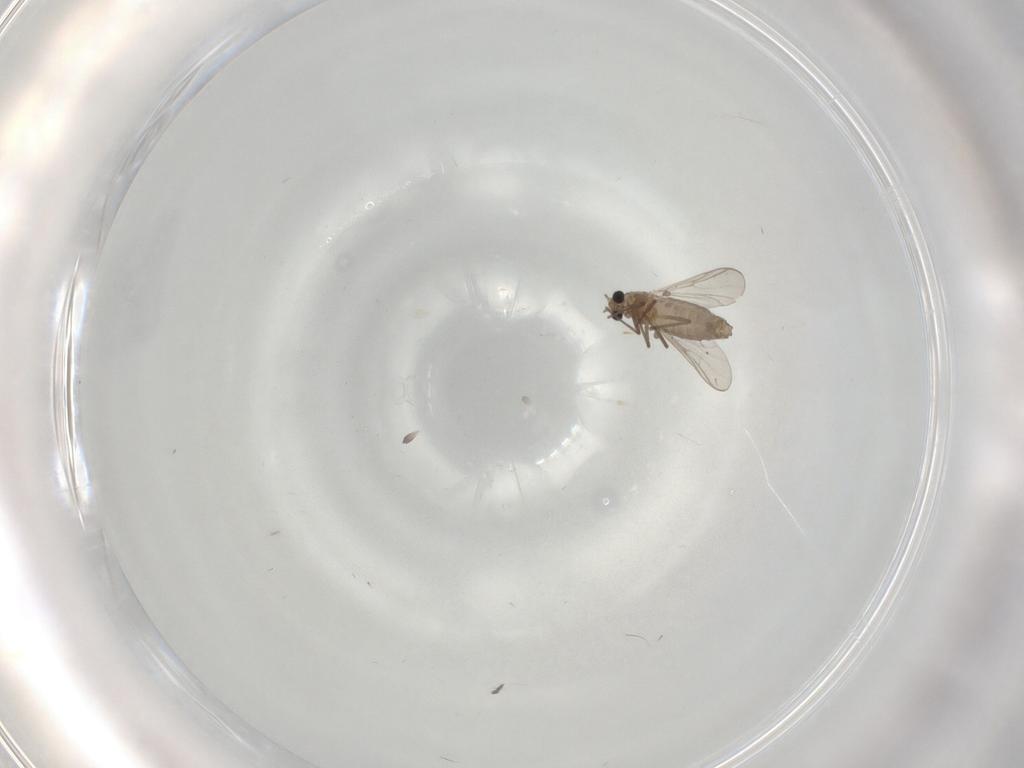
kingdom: Animalia
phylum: Arthropoda
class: Insecta
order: Diptera
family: Chironomidae
